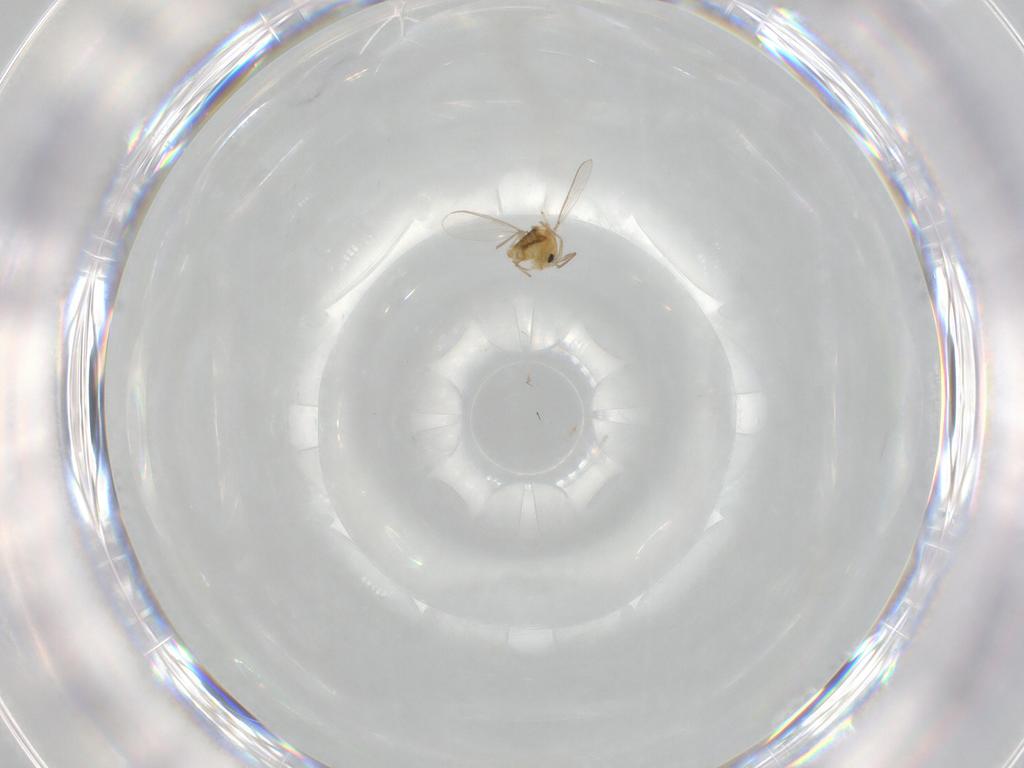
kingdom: Animalia
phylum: Arthropoda
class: Insecta
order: Diptera
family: Chironomidae
